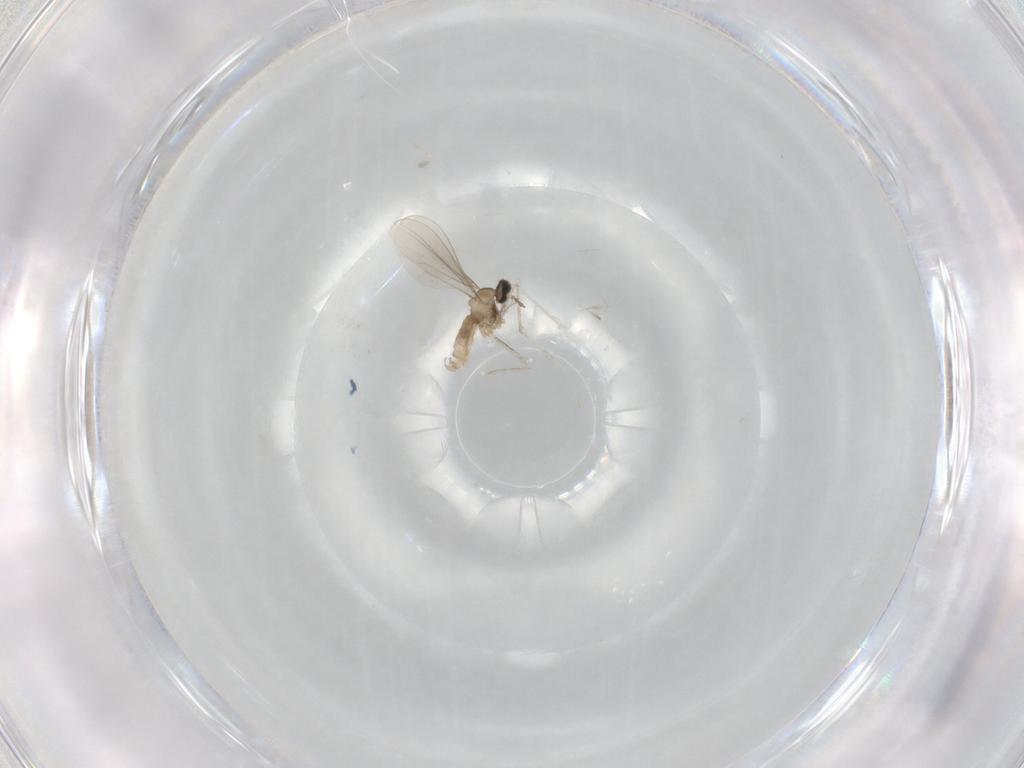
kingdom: Animalia
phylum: Arthropoda
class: Insecta
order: Diptera
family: Cecidomyiidae
